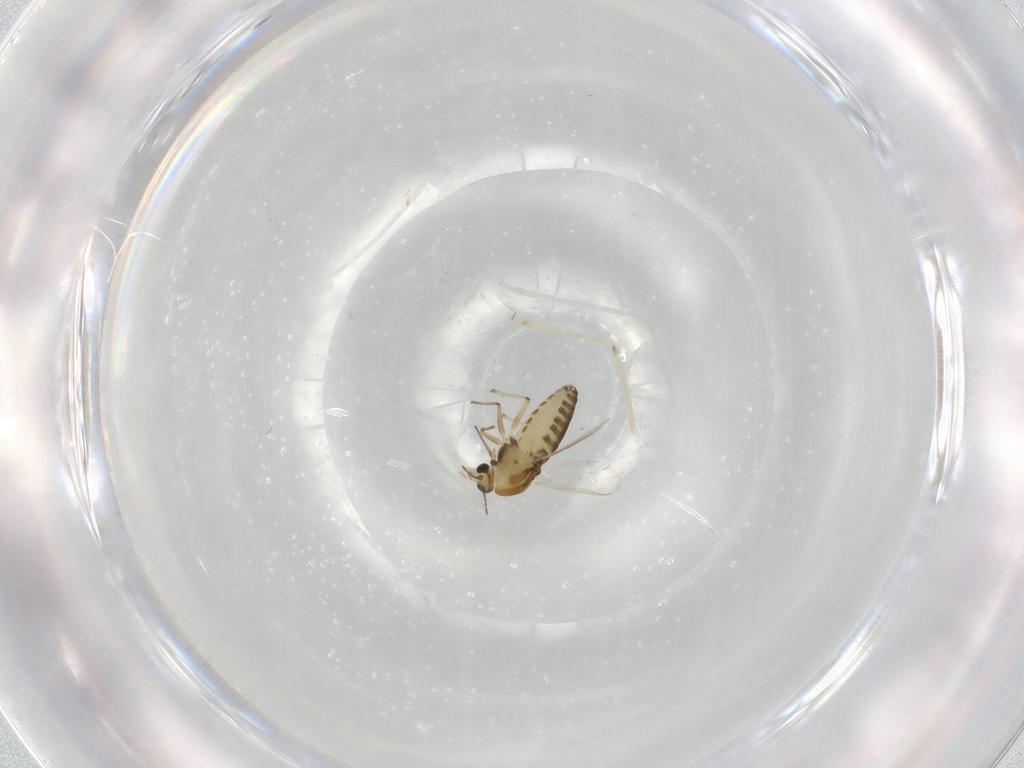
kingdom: Animalia
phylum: Arthropoda
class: Insecta
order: Diptera
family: Chironomidae
